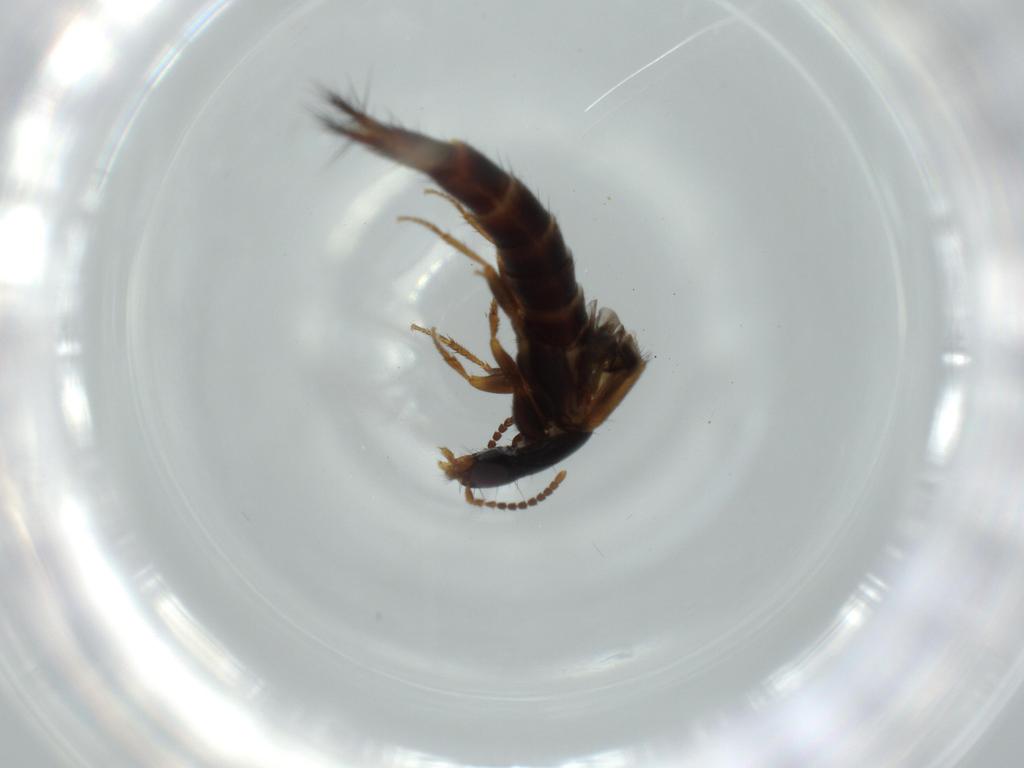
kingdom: Animalia
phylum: Arthropoda
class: Insecta
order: Coleoptera
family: Staphylinidae
